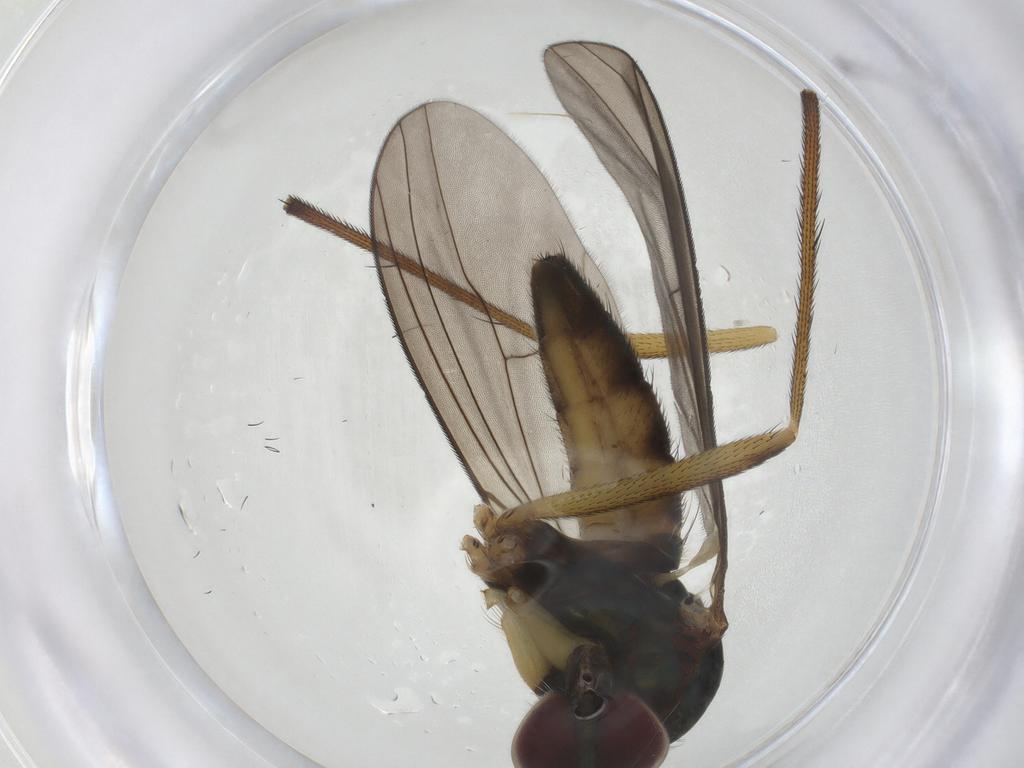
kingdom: Animalia
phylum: Arthropoda
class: Insecta
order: Diptera
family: Dolichopodidae
